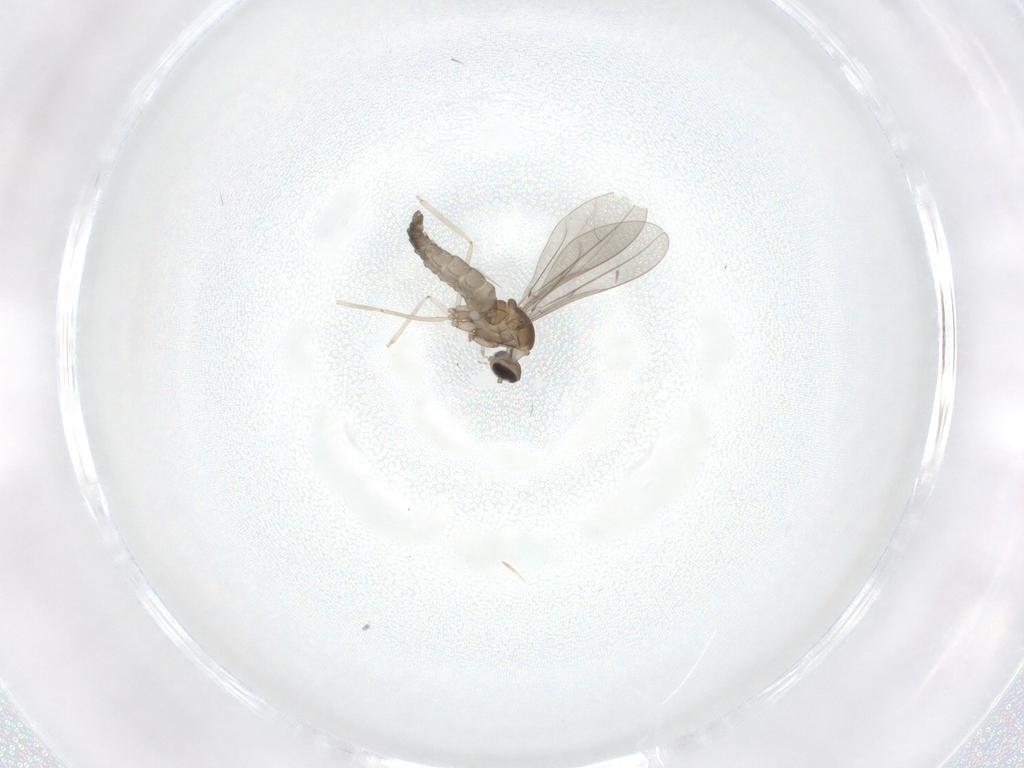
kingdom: Animalia
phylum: Arthropoda
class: Insecta
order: Diptera
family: Cecidomyiidae
